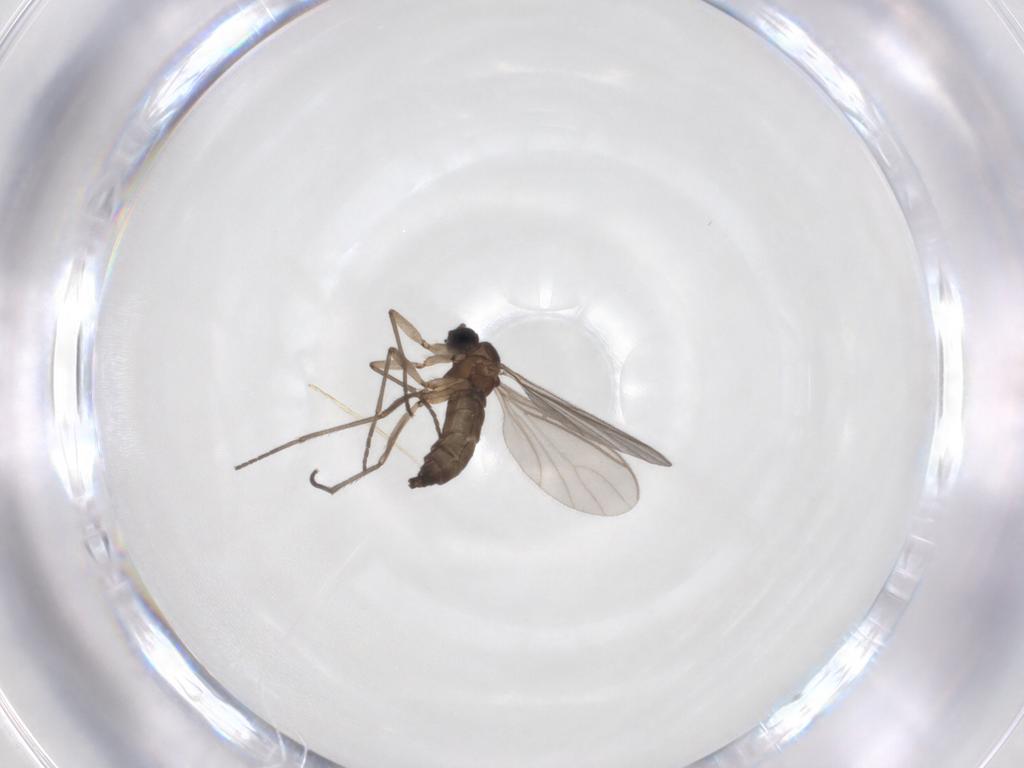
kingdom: Animalia
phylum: Arthropoda
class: Insecta
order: Diptera
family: Sciaridae
